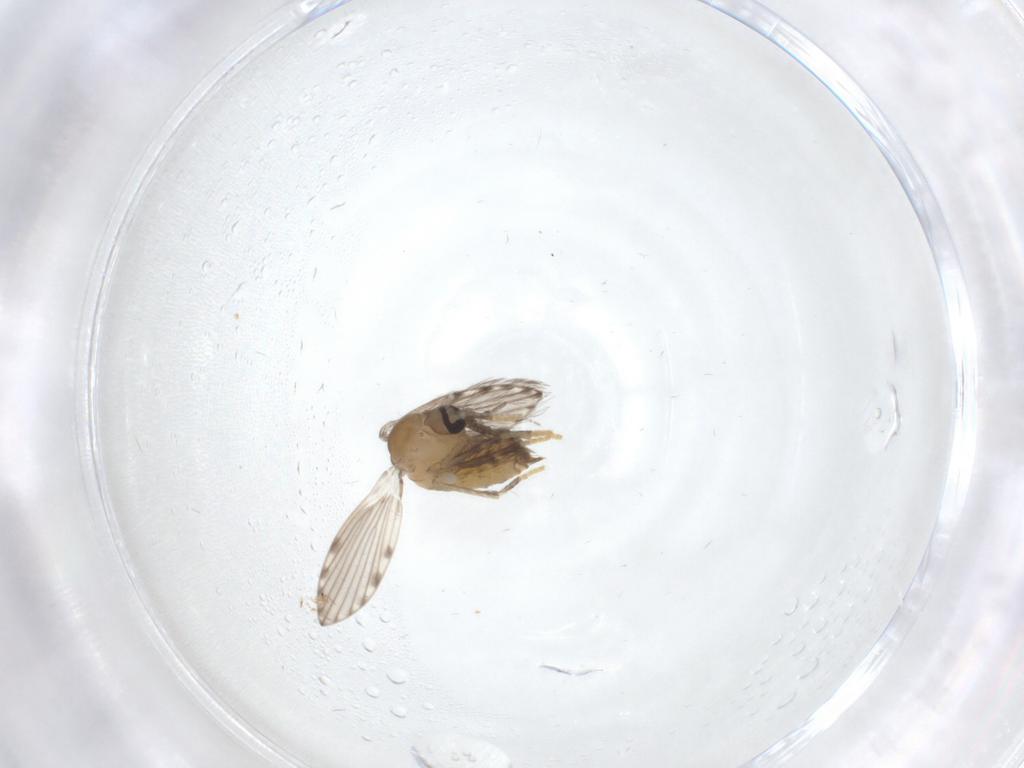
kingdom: Animalia
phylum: Arthropoda
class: Insecta
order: Diptera
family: Psychodidae
